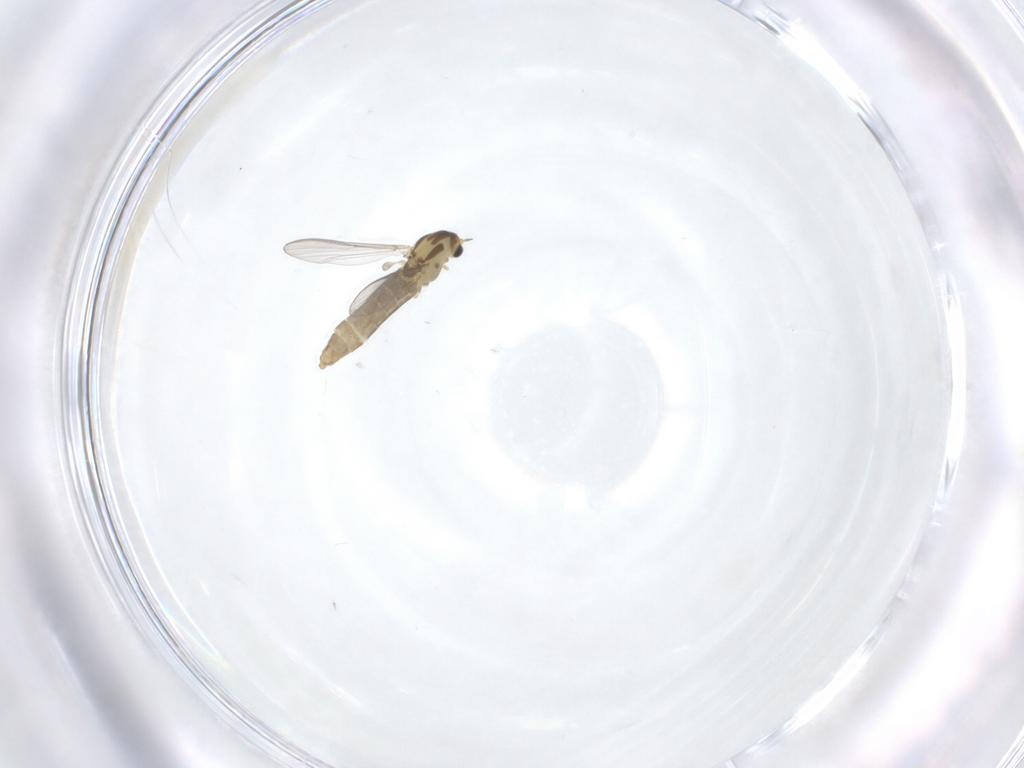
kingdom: Animalia
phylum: Arthropoda
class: Insecta
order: Diptera
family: Chironomidae
